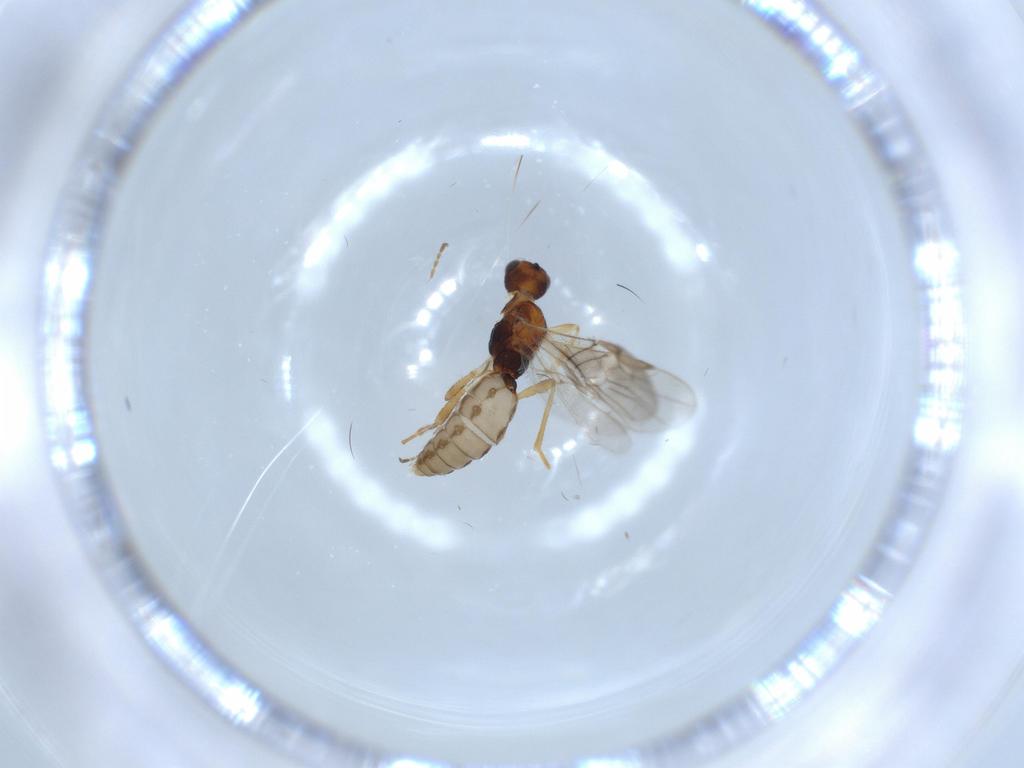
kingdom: Animalia
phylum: Arthropoda
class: Insecta
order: Hymenoptera
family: Braconidae
